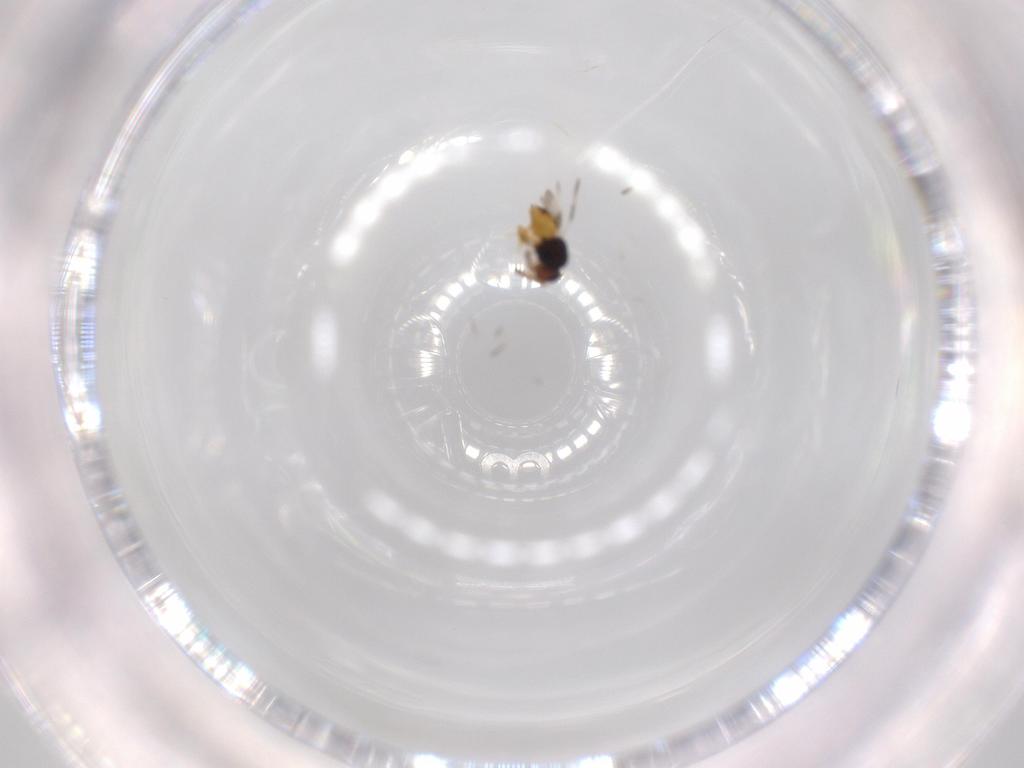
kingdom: Animalia
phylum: Arthropoda
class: Insecta
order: Hymenoptera
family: Scelionidae
